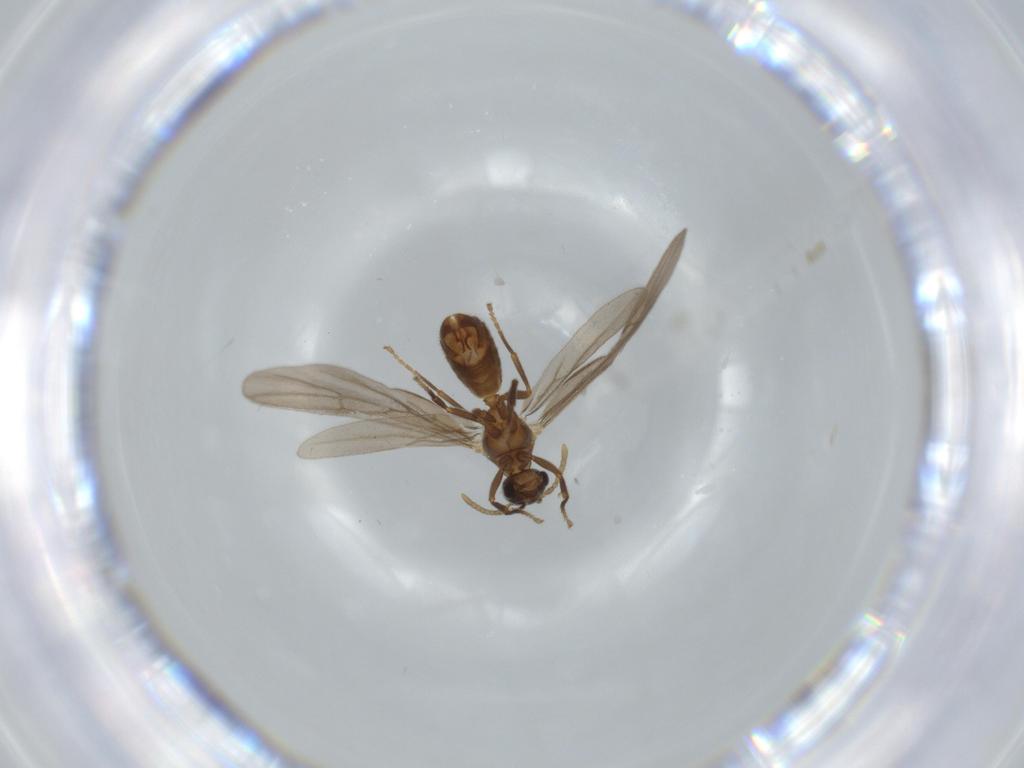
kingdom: Animalia
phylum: Arthropoda
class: Insecta
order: Hymenoptera
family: Formicidae
